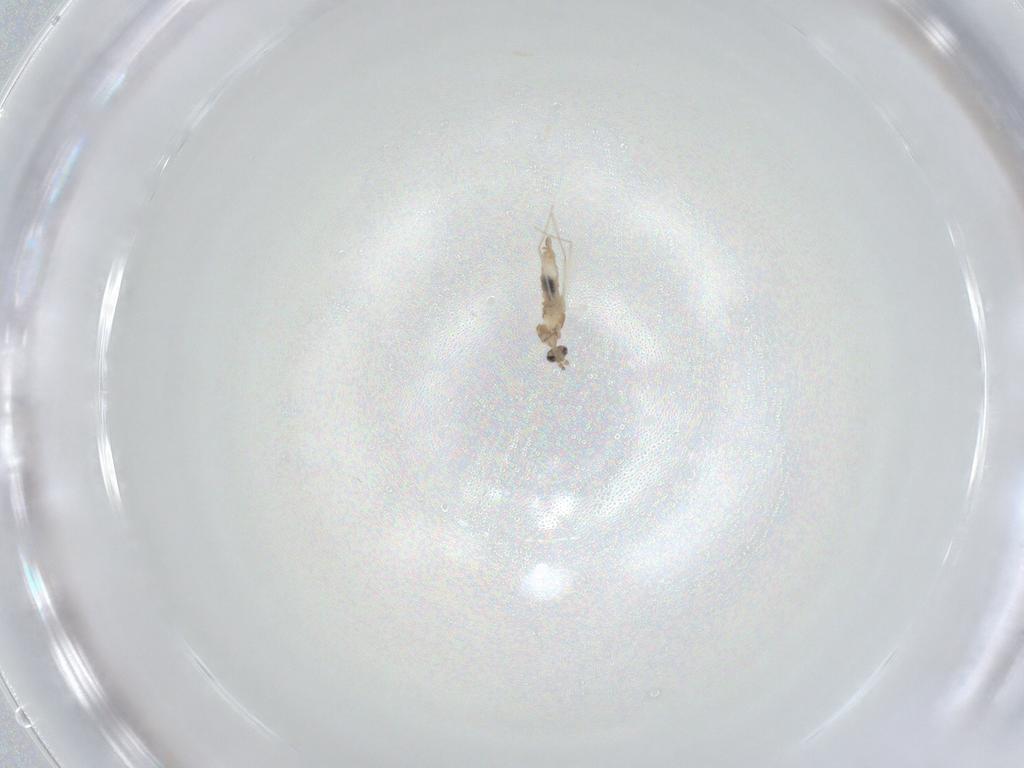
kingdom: Animalia
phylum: Arthropoda
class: Insecta
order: Diptera
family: Cecidomyiidae
